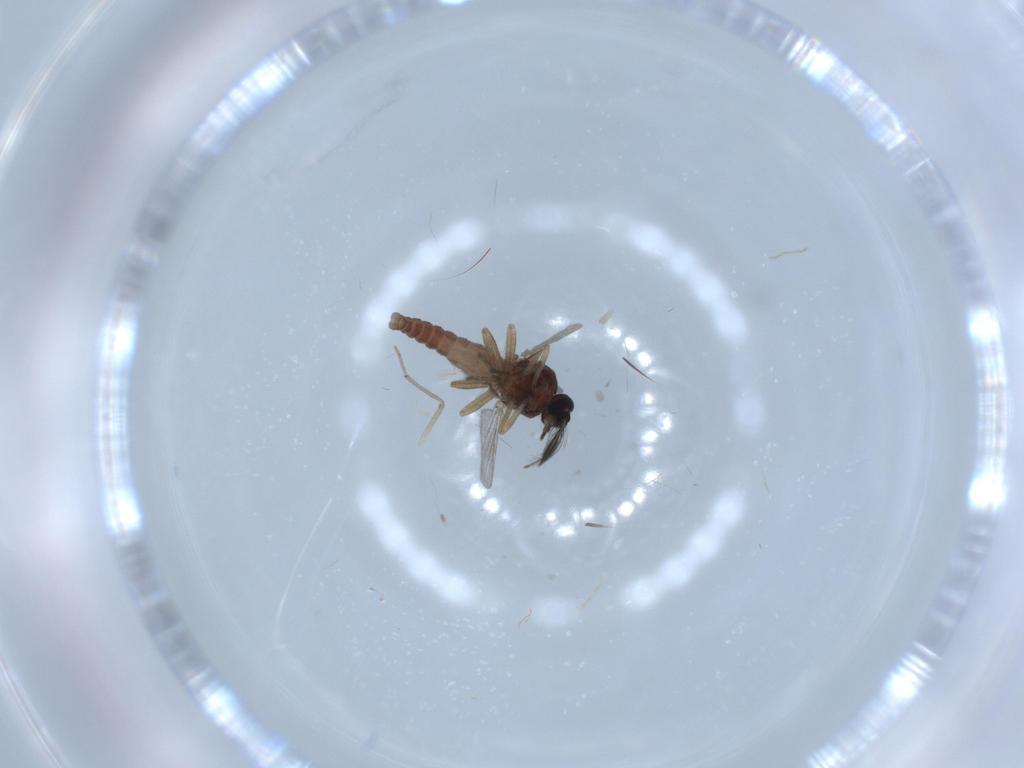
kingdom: Animalia
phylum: Arthropoda
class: Insecta
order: Diptera
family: Ceratopogonidae
